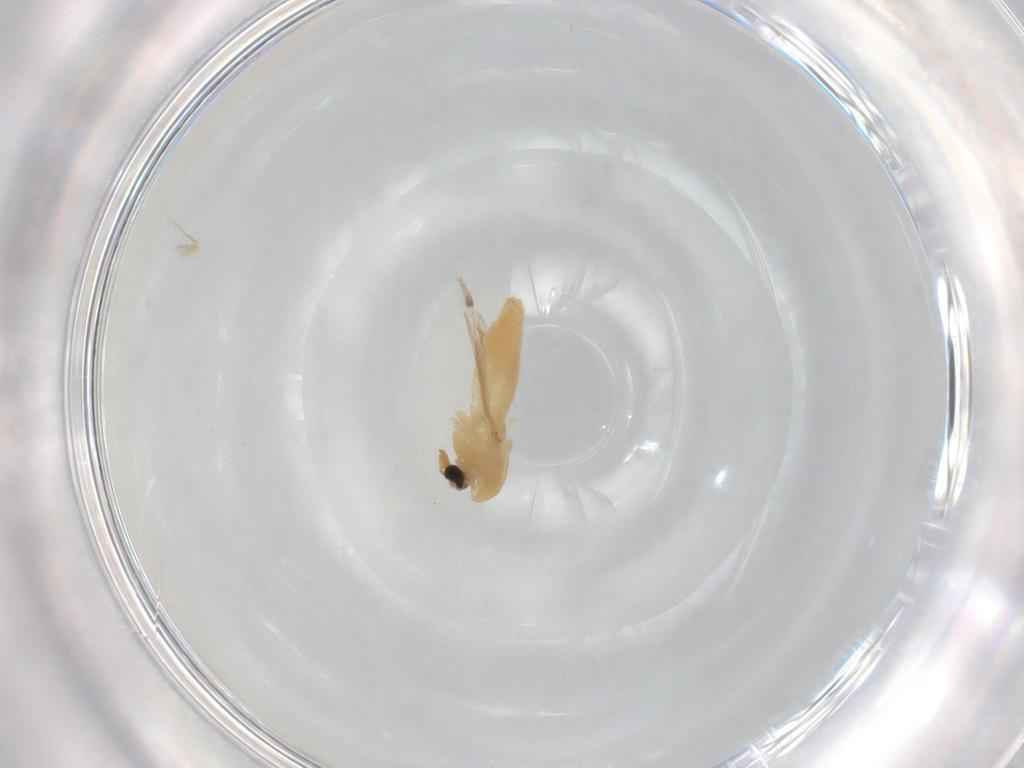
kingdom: Animalia
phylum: Arthropoda
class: Insecta
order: Diptera
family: Chironomidae
